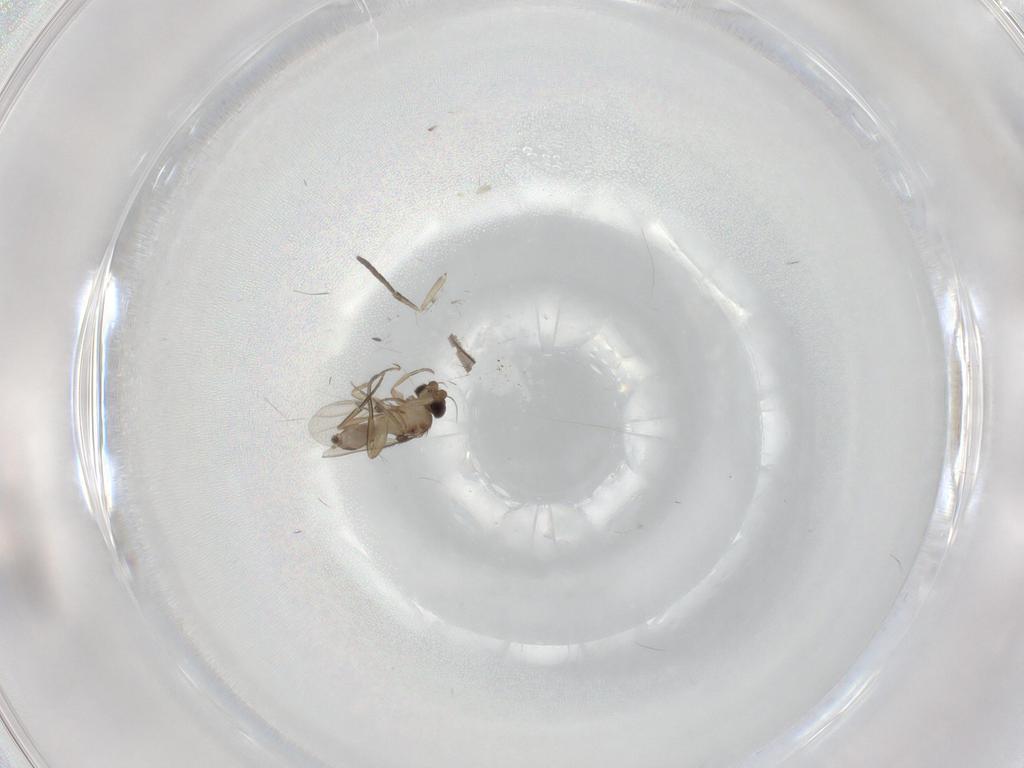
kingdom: Animalia
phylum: Arthropoda
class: Insecta
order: Diptera
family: Phoridae
